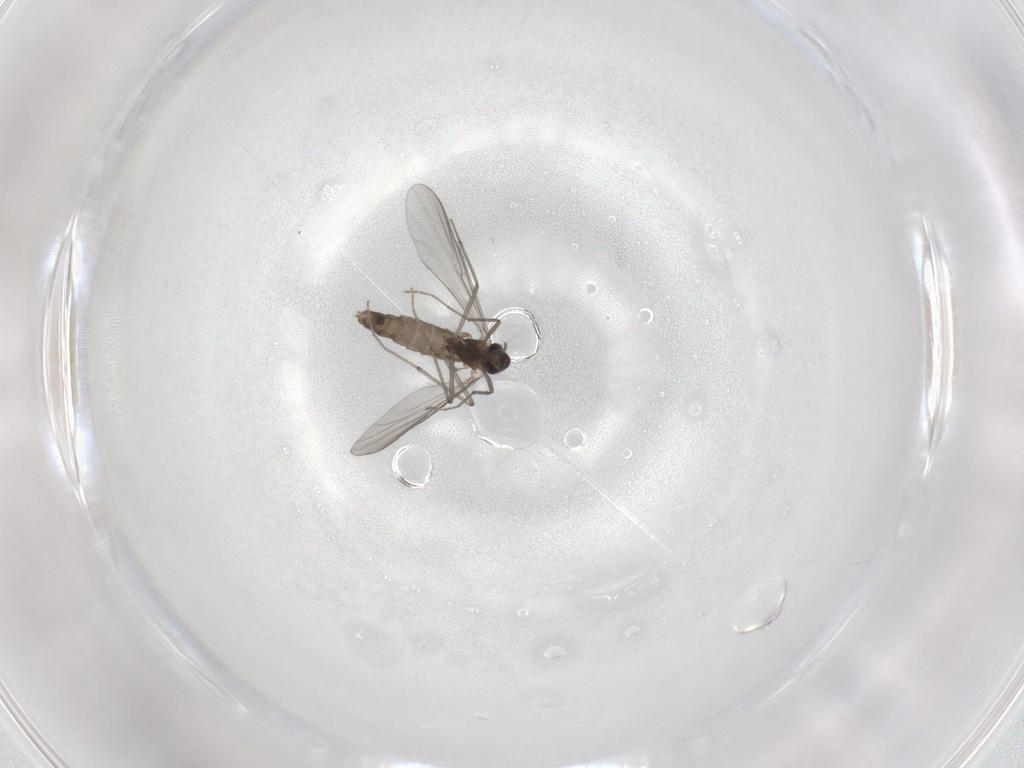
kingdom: Animalia
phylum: Arthropoda
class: Insecta
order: Diptera
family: Chironomidae
